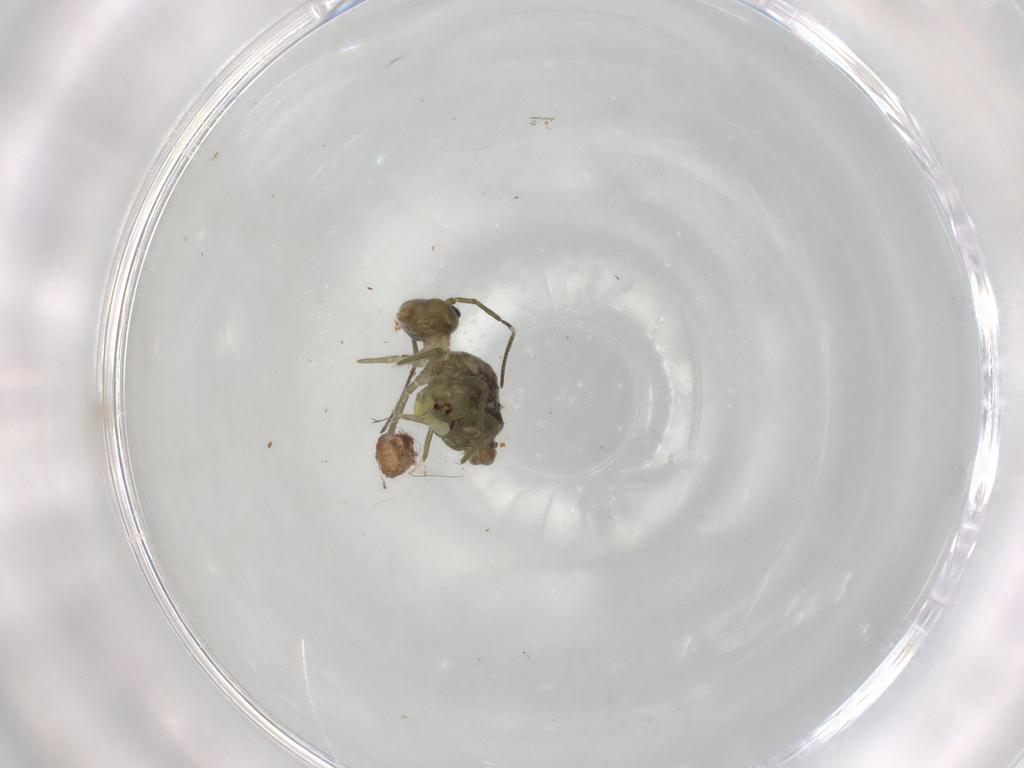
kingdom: Animalia
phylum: Arthropoda
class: Collembola
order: Symphypleona
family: Sminthuridae
